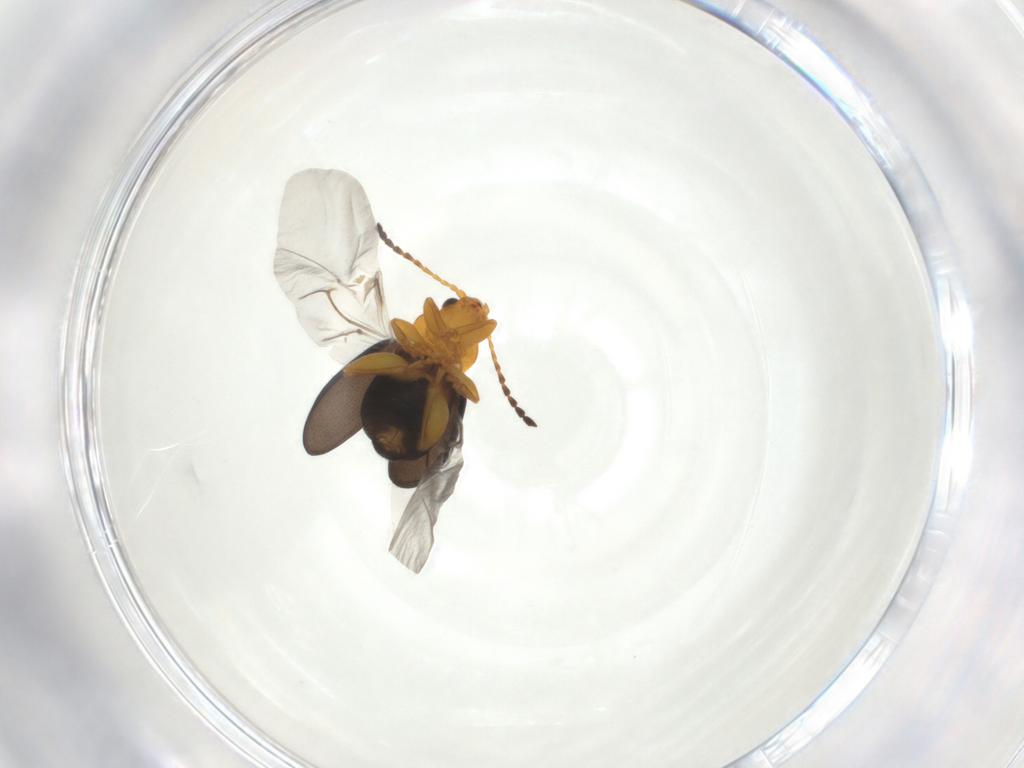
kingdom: Animalia
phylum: Arthropoda
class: Insecta
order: Coleoptera
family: Chrysomelidae
